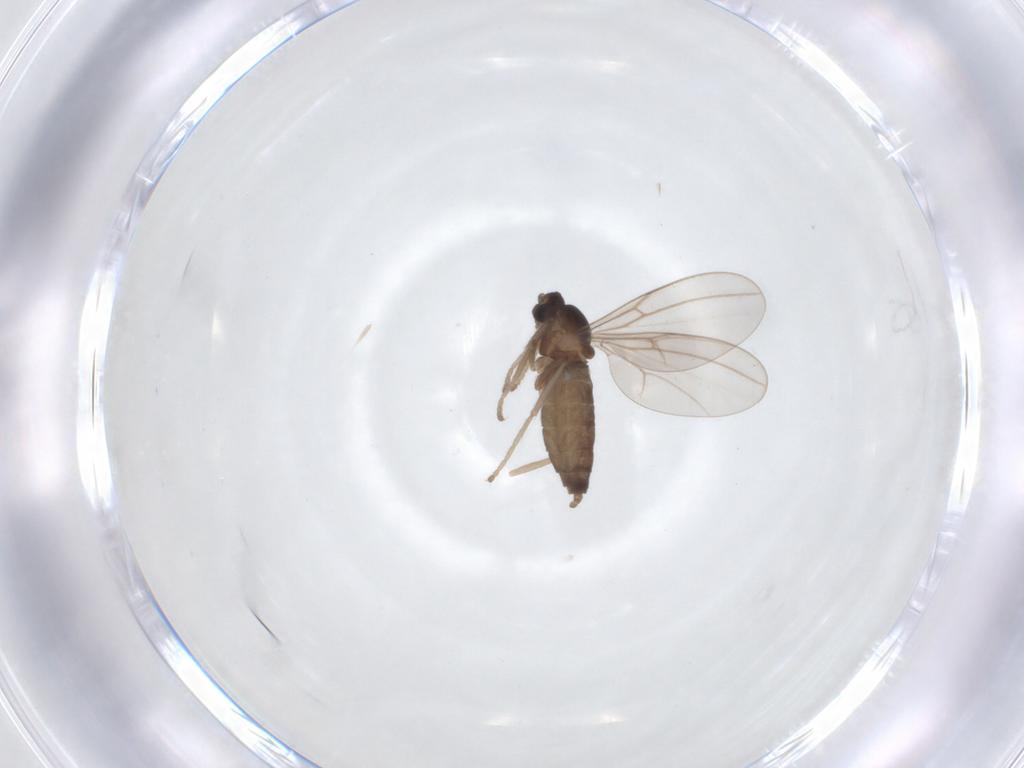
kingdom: Animalia
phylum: Arthropoda
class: Insecta
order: Diptera
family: Cecidomyiidae
